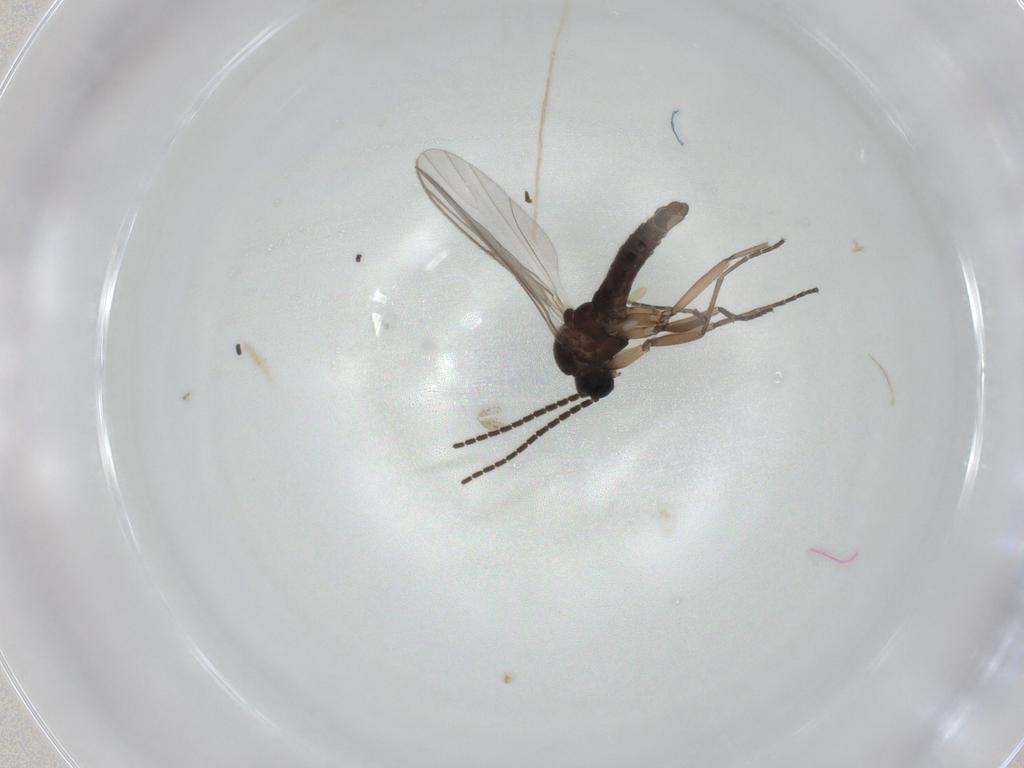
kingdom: Animalia
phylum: Arthropoda
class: Insecta
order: Diptera
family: Sciaridae
